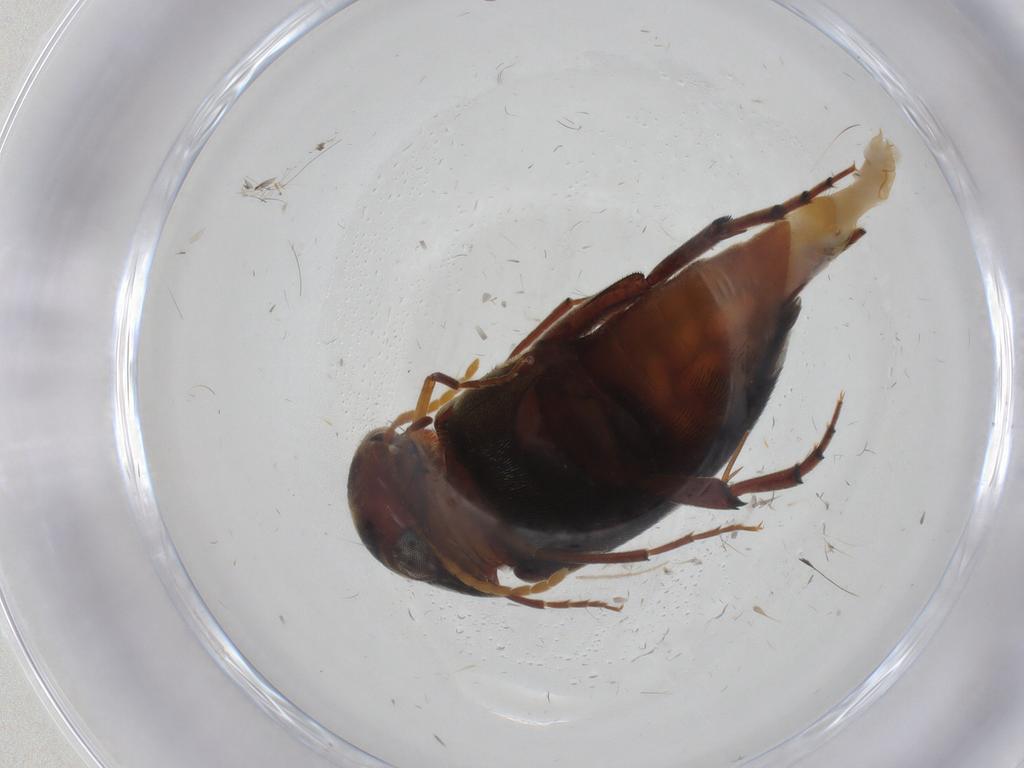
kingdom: Animalia
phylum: Arthropoda
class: Insecta
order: Coleoptera
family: Mordellidae
